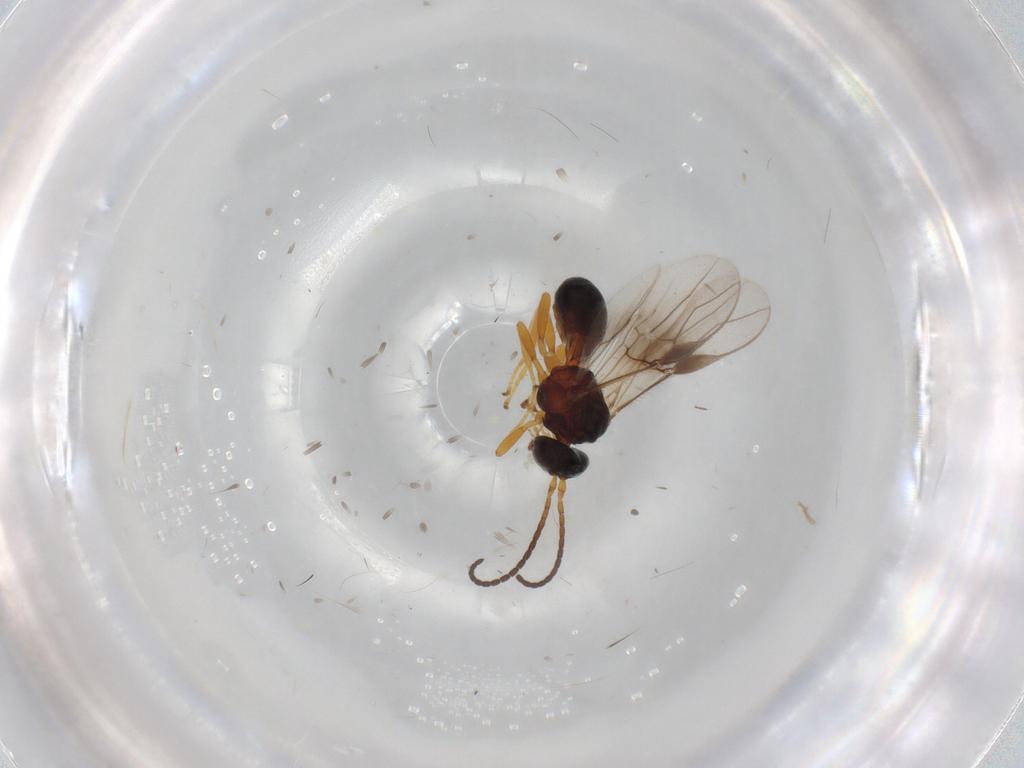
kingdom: Animalia
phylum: Arthropoda
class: Insecta
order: Hymenoptera
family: Braconidae
